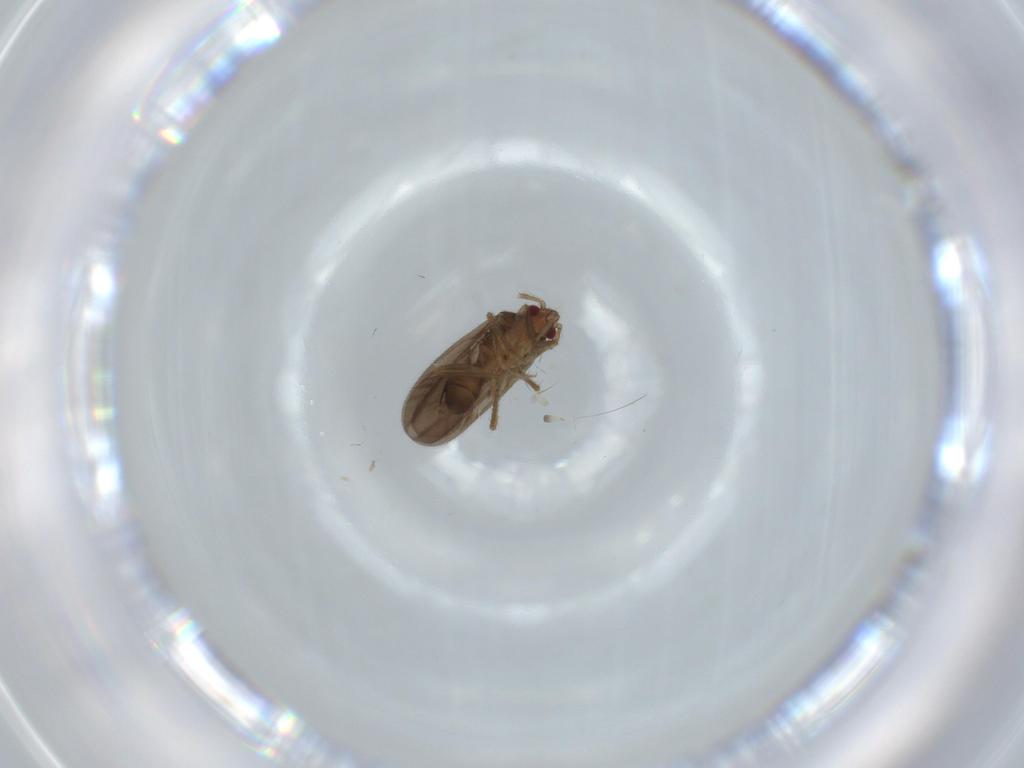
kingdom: Animalia
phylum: Arthropoda
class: Insecta
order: Hemiptera
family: Ceratocombidae
